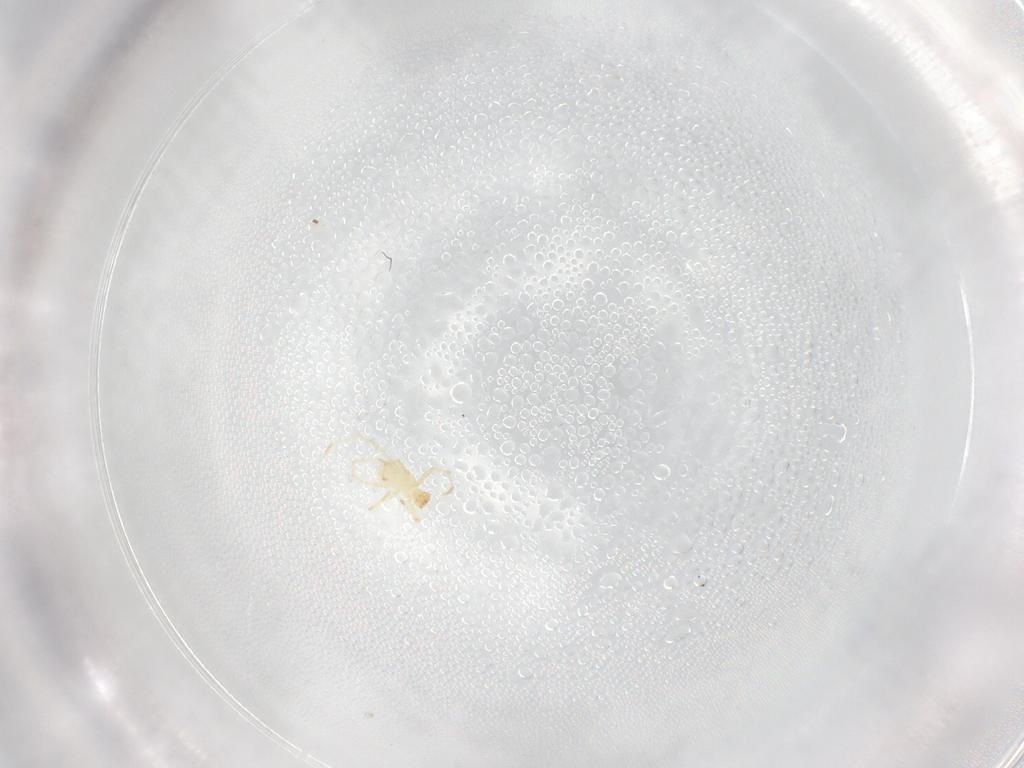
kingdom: Animalia
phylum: Arthropoda
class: Arachnida
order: Trombidiformes
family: Erythraeidae
